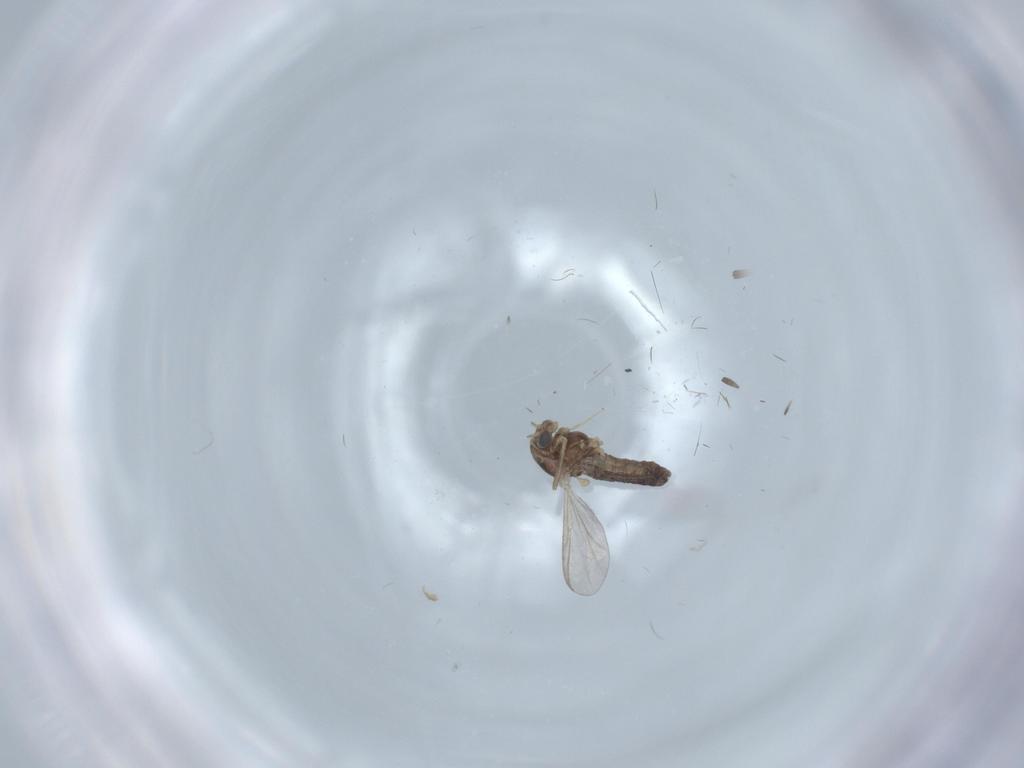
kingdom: Animalia
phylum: Arthropoda
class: Insecta
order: Diptera
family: Chironomidae
